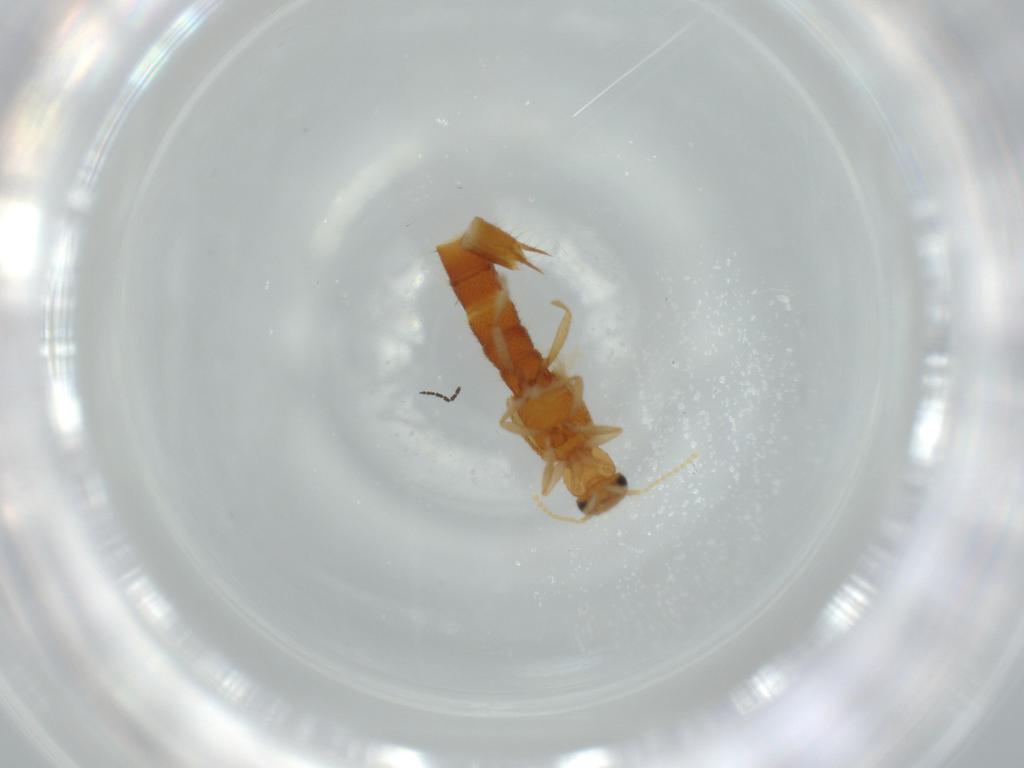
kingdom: Animalia
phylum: Arthropoda
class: Insecta
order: Coleoptera
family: Staphylinidae
